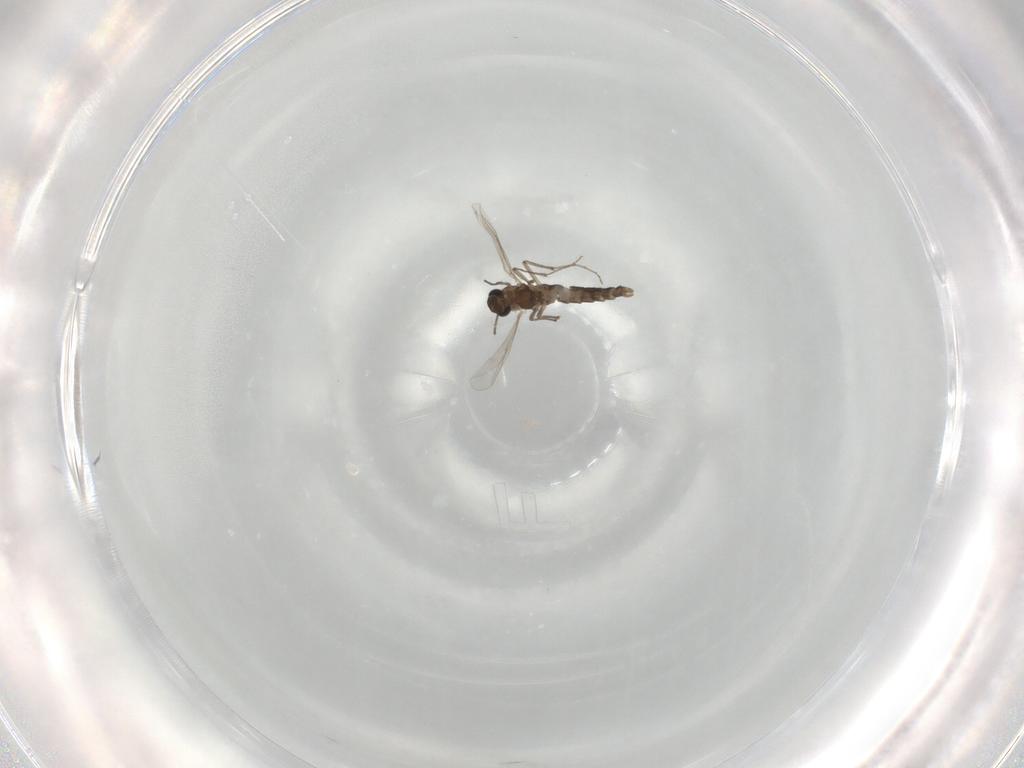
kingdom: Animalia
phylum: Arthropoda
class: Insecta
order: Diptera
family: Chironomidae
